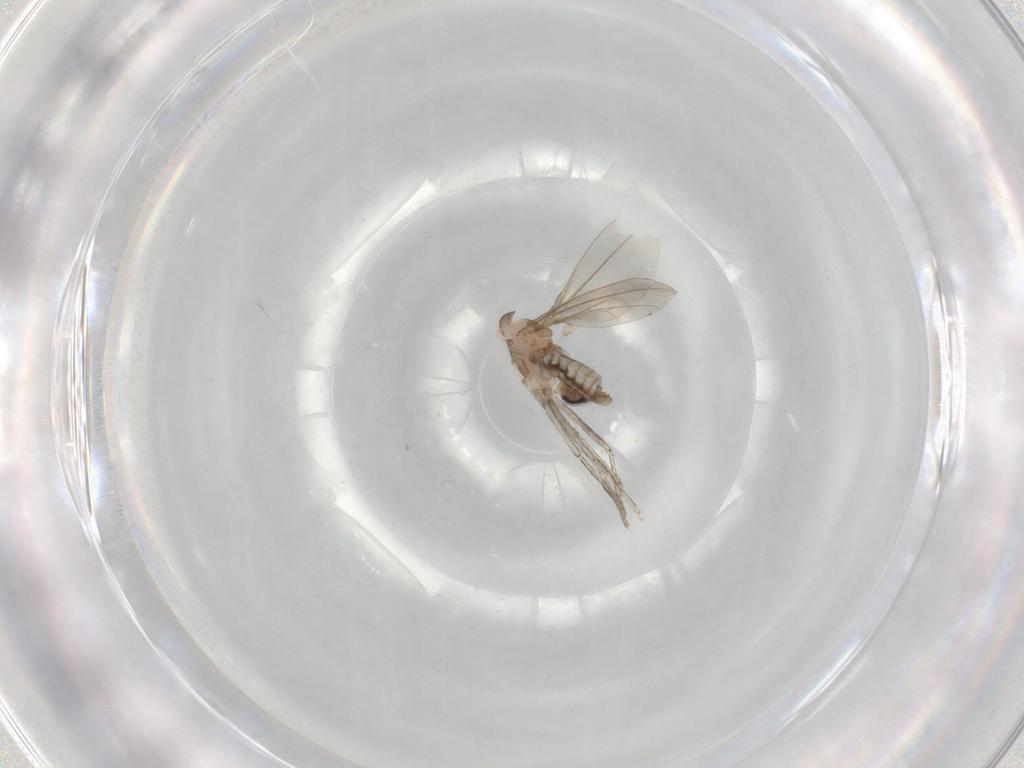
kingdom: Animalia
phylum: Arthropoda
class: Insecta
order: Diptera
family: Cecidomyiidae
